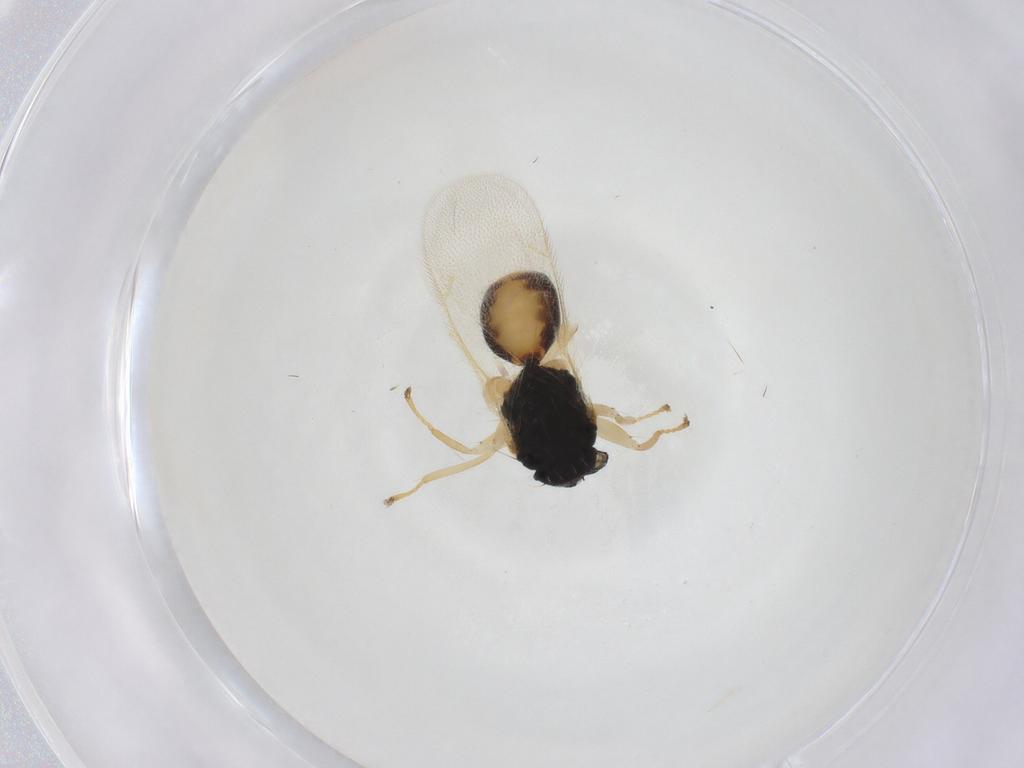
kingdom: Animalia
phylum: Arthropoda
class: Insecta
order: Hymenoptera
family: Eulophidae
